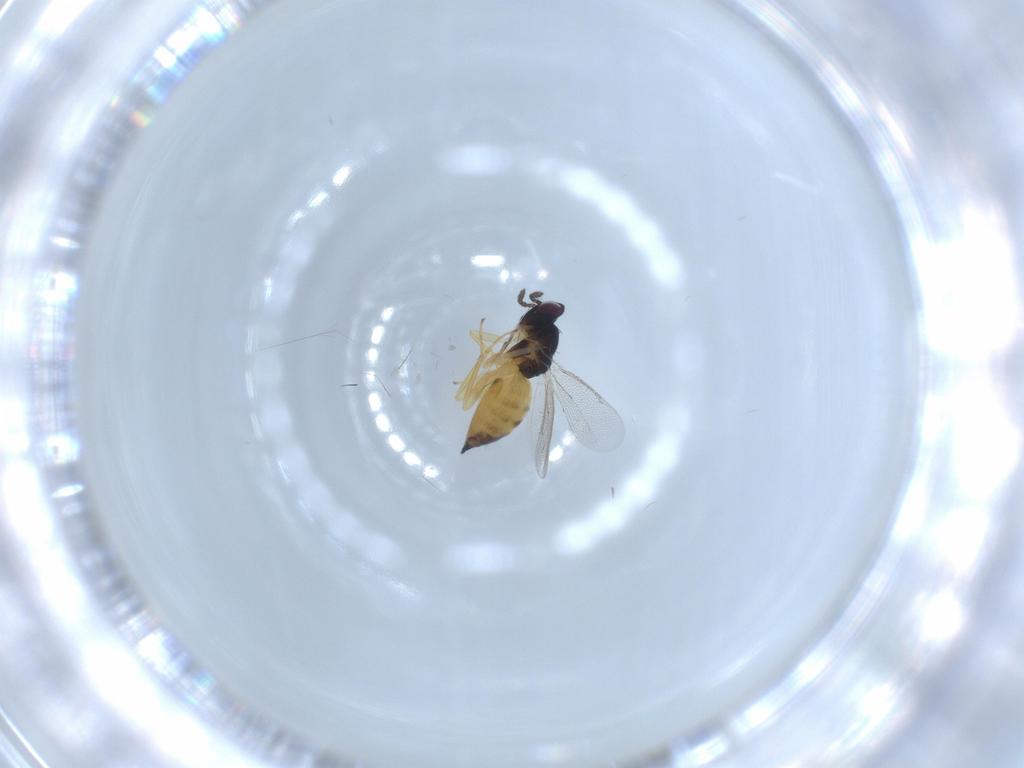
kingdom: Animalia
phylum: Arthropoda
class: Insecta
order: Hymenoptera
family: Eulophidae
